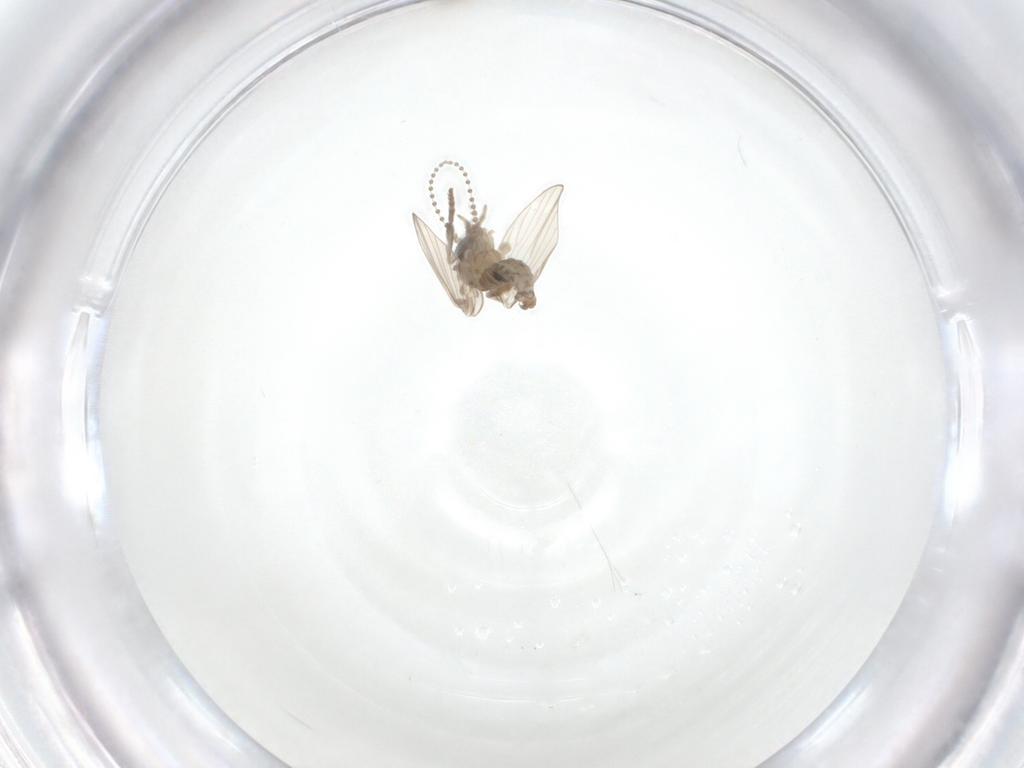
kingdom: Animalia
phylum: Arthropoda
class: Insecta
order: Diptera
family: Psychodidae
